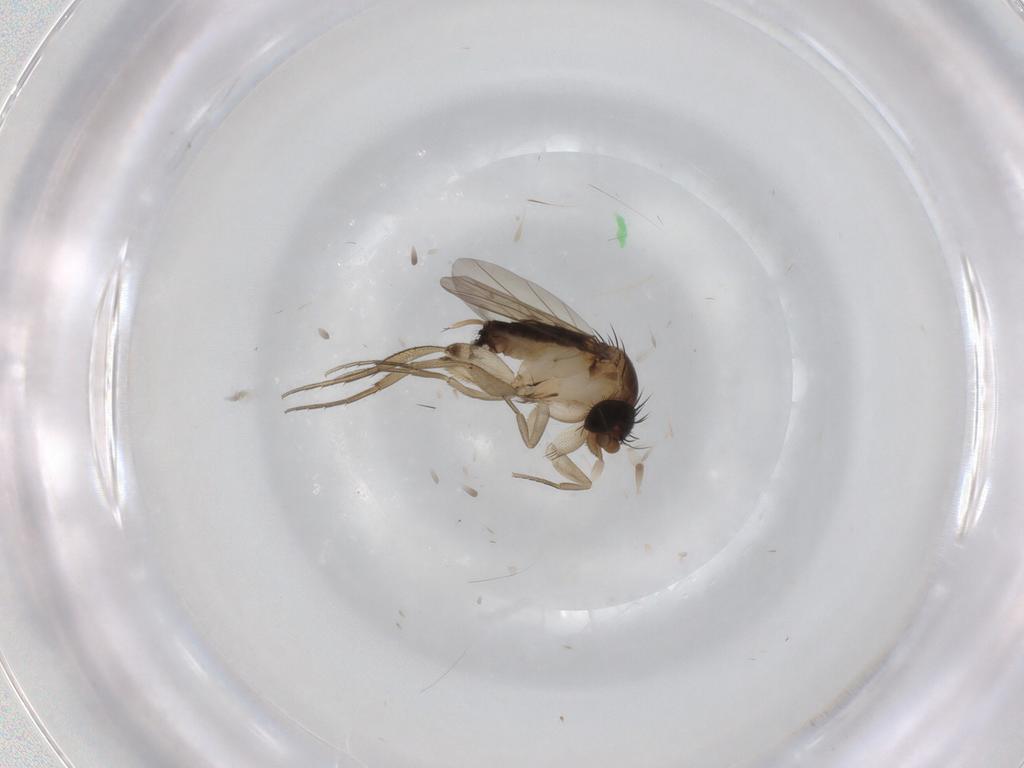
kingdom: Animalia
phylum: Arthropoda
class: Insecta
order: Diptera
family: Phoridae
